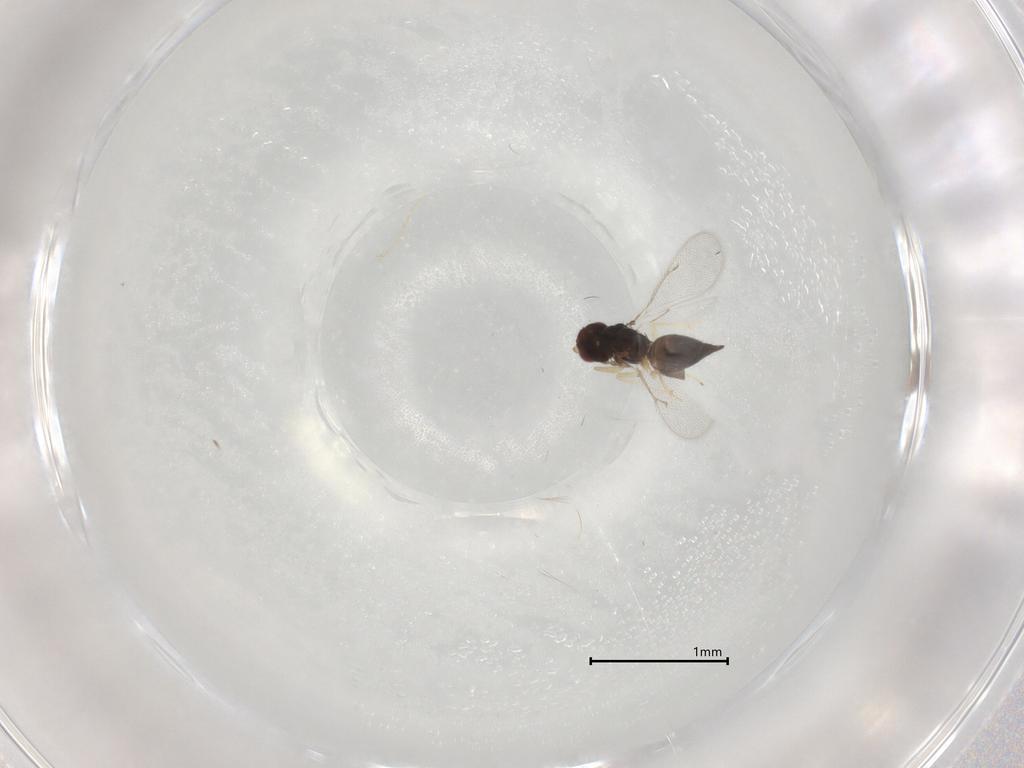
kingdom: Animalia
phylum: Arthropoda
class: Insecta
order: Hymenoptera
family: Eulophidae
